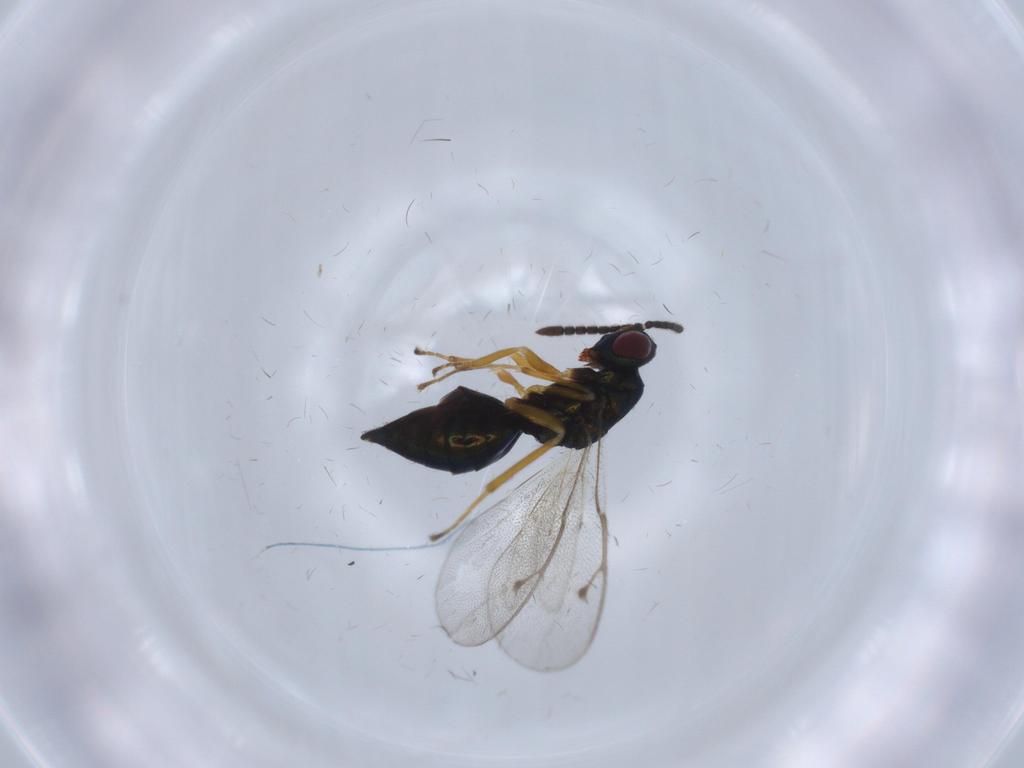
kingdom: Animalia
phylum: Arthropoda
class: Insecta
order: Hymenoptera
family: Pteromalidae
